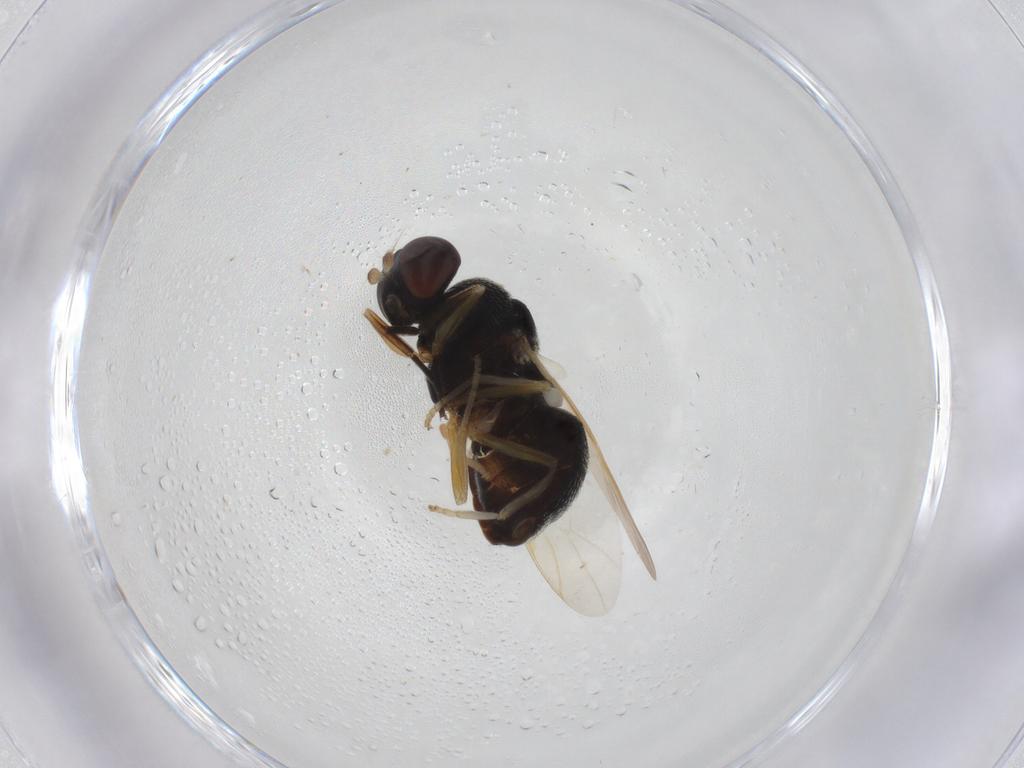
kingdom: Animalia
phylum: Arthropoda
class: Insecta
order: Diptera
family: Stratiomyidae
